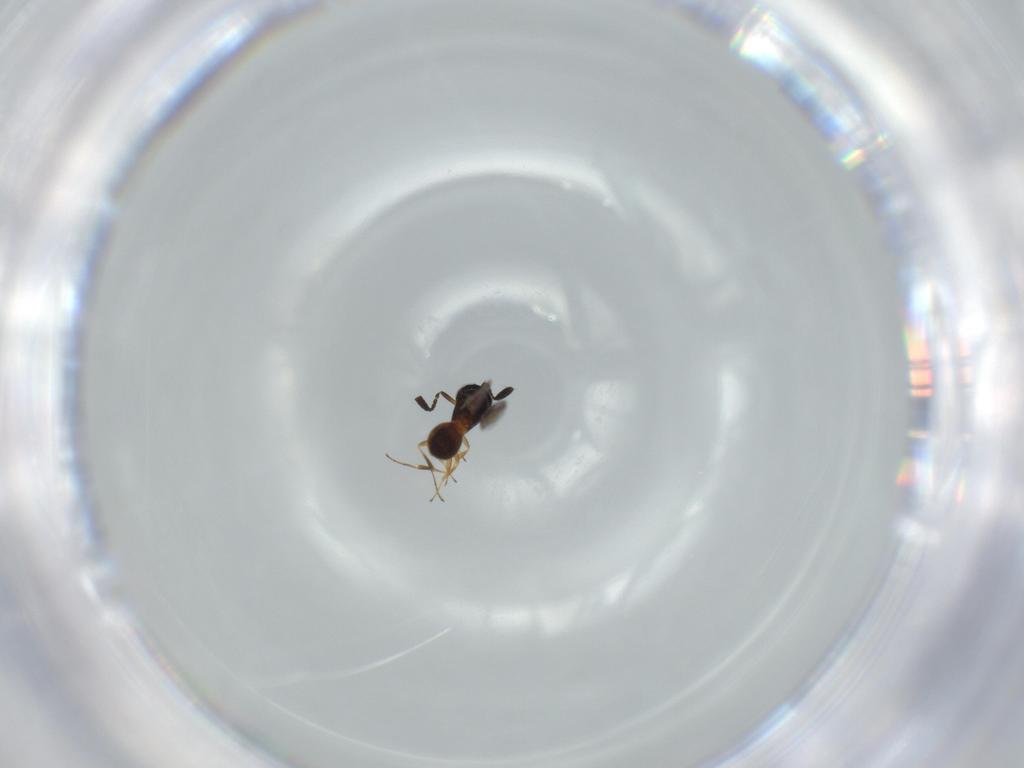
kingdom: Animalia
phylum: Arthropoda
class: Insecta
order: Hymenoptera
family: Scelionidae
